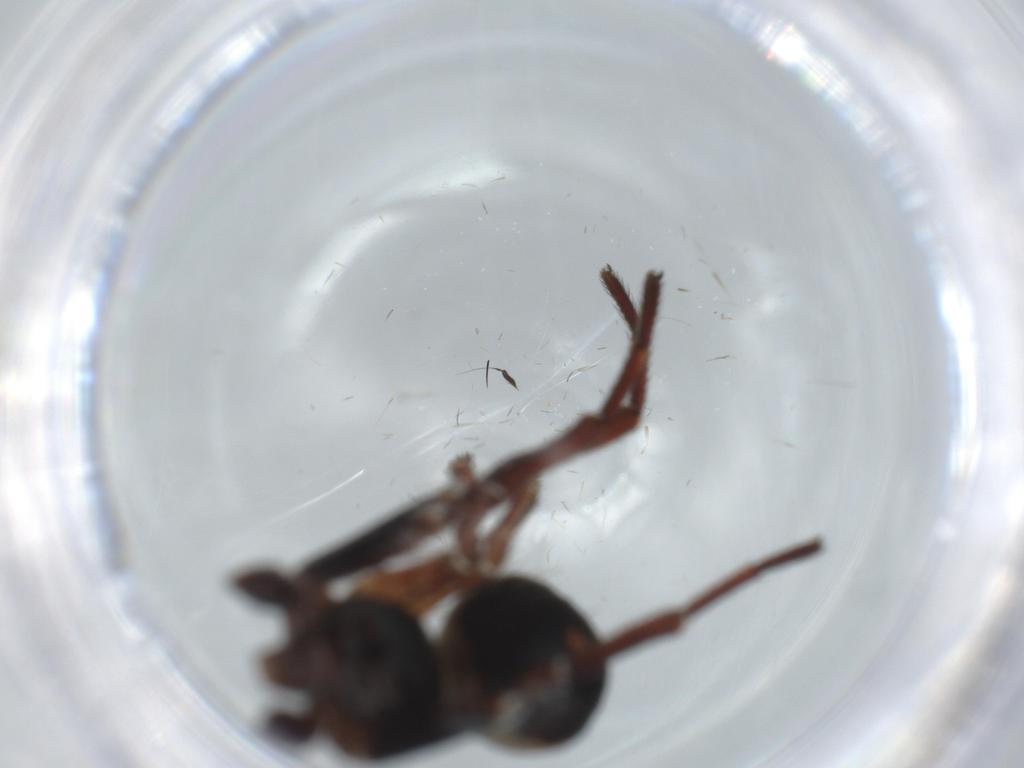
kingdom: Animalia
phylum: Arthropoda
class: Arachnida
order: Araneae
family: Thomisidae
